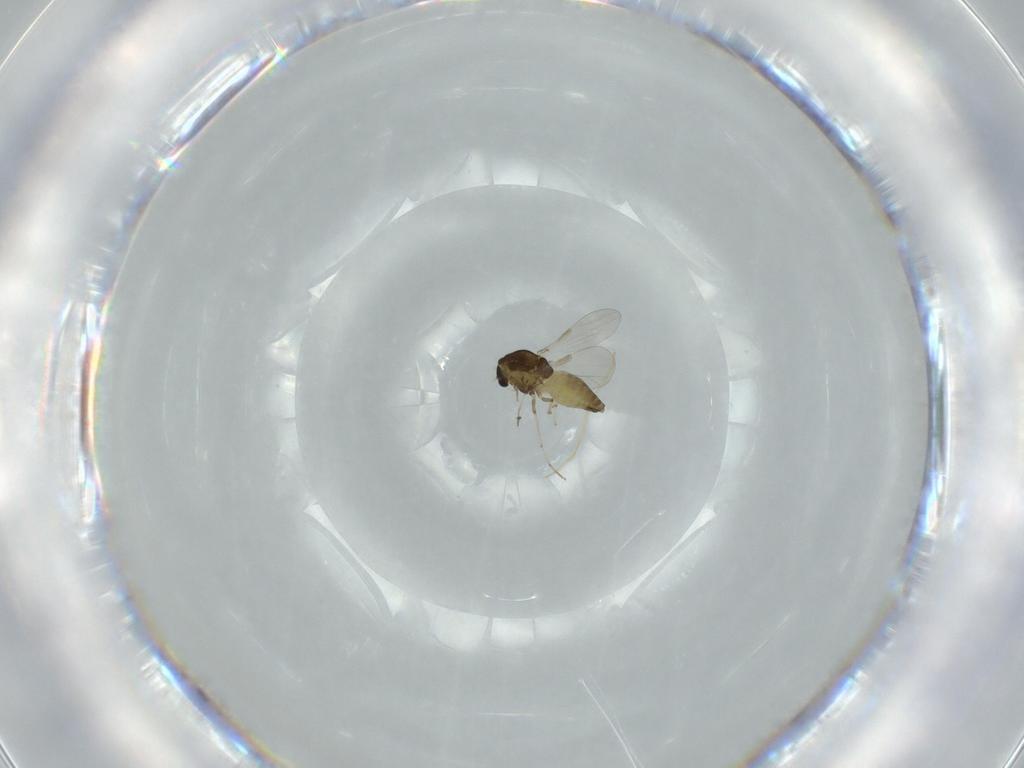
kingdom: Animalia
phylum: Arthropoda
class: Insecta
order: Diptera
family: Chironomidae
